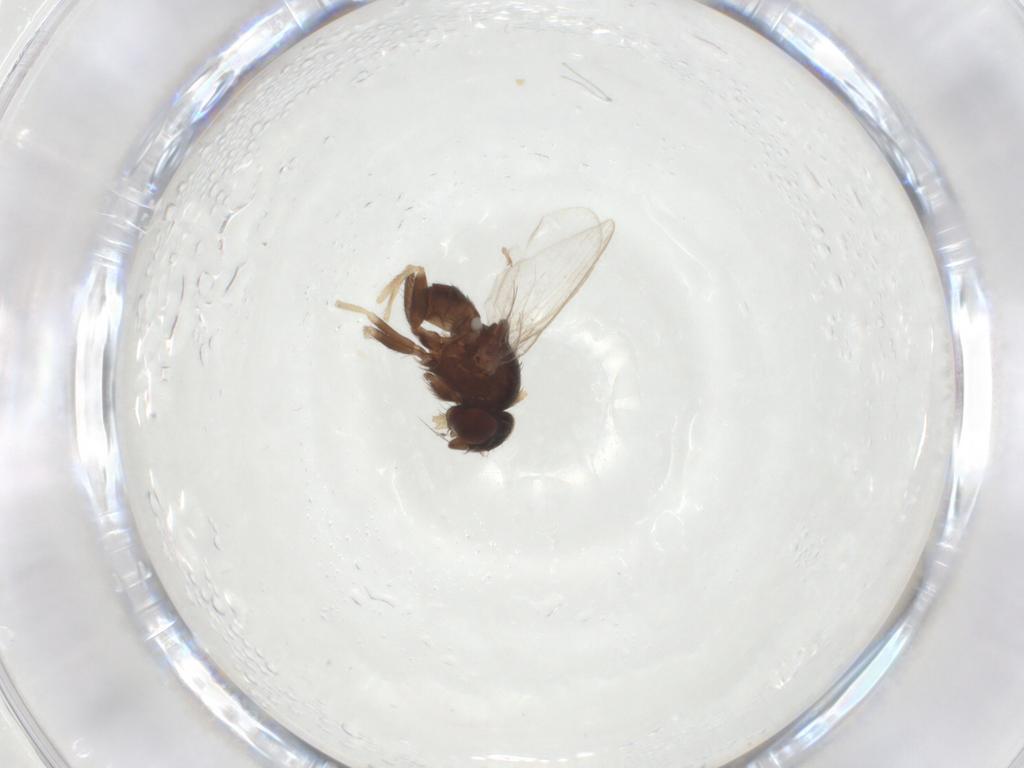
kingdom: Animalia
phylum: Arthropoda
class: Insecta
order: Diptera
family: Milichiidae
